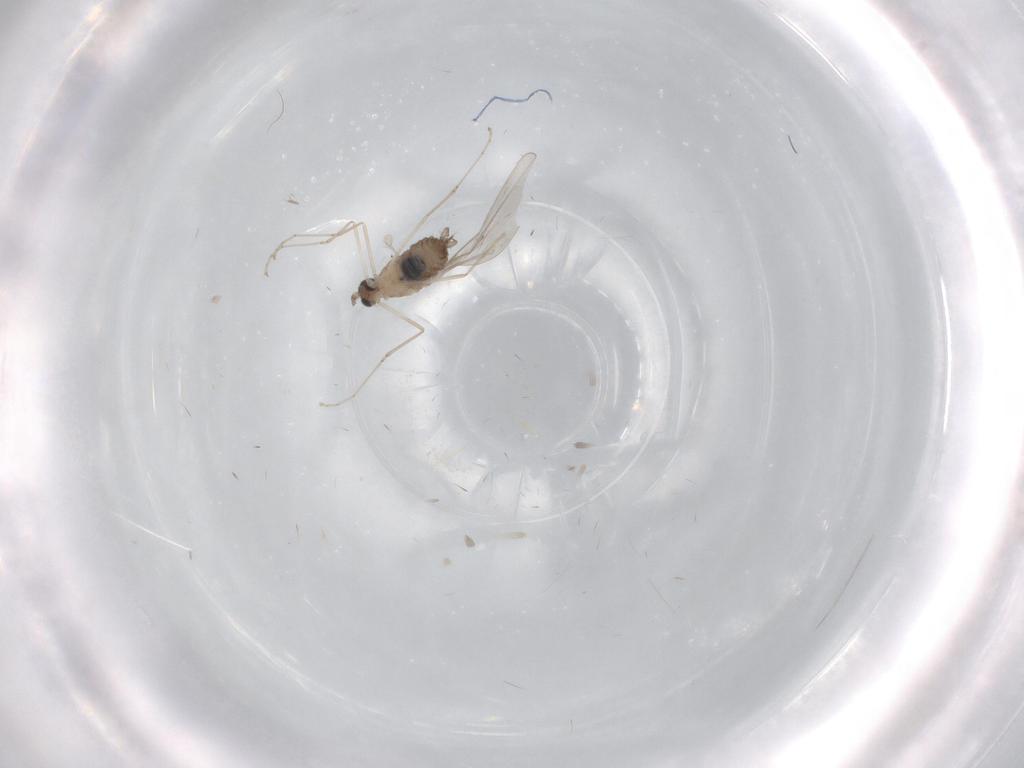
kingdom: Animalia
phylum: Arthropoda
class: Insecta
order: Diptera
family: Cecidomyiidae
